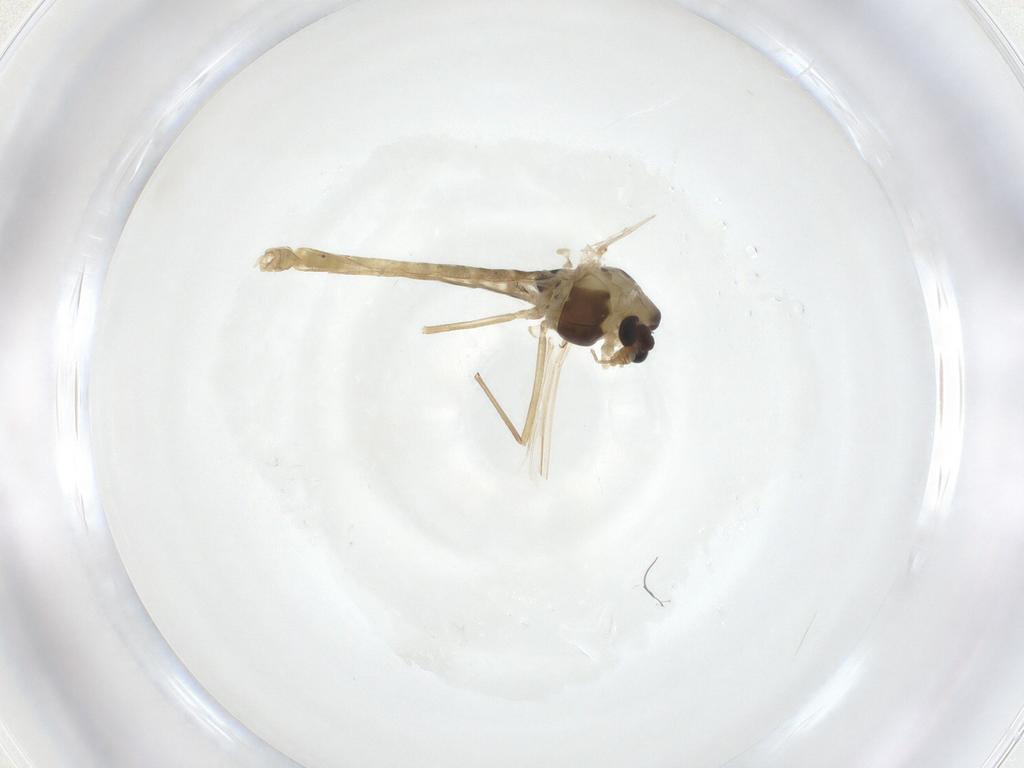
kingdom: Animalia
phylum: Arthropoda
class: Insecta
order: Diptera
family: Chironomidae
